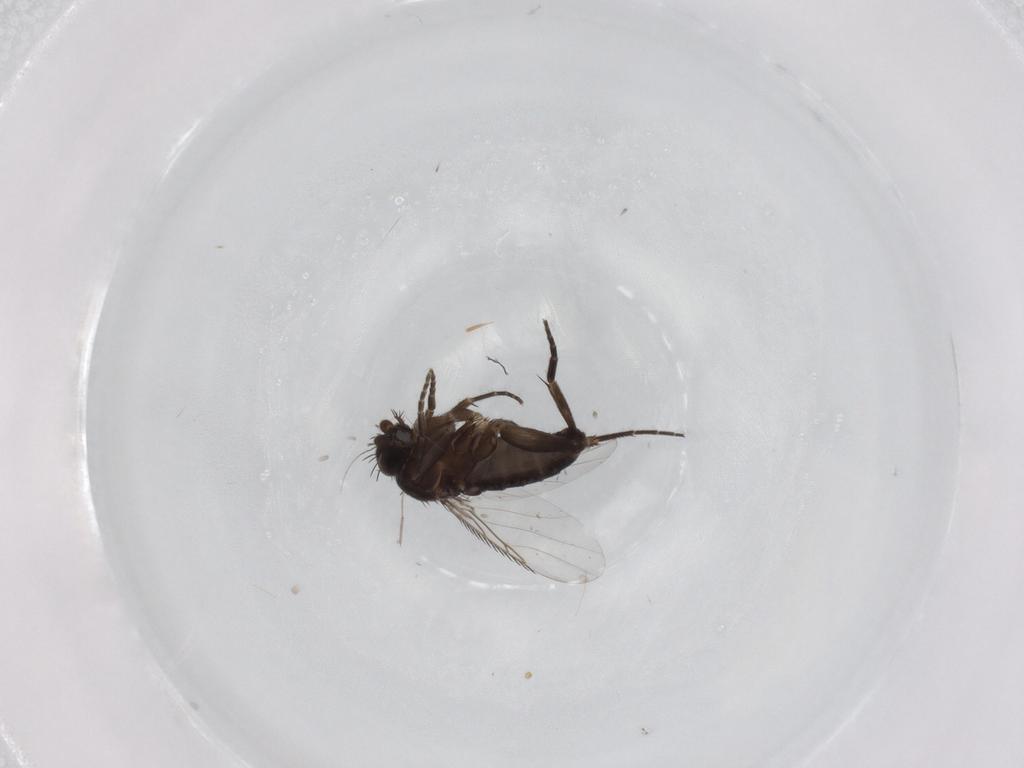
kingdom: Animalia
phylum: Arthropoda
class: Insecta
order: Diptera
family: Phoridae
